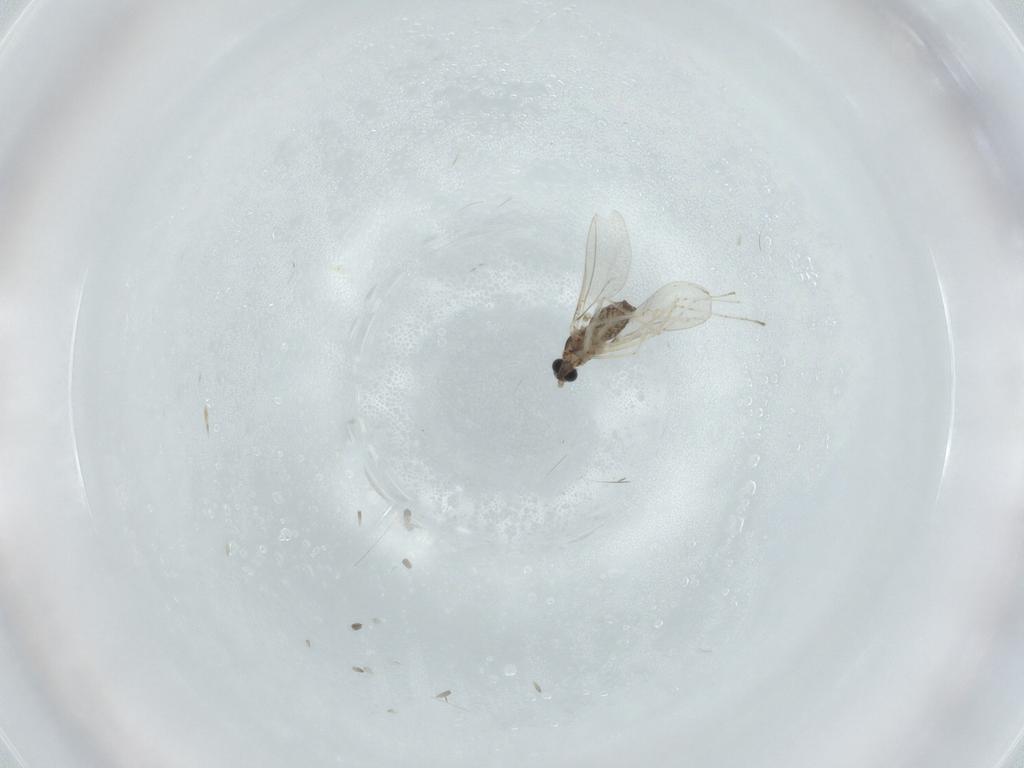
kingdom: Animalia
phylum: Arthropoda
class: Insecta
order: Diptera
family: Cecidomyiidae
